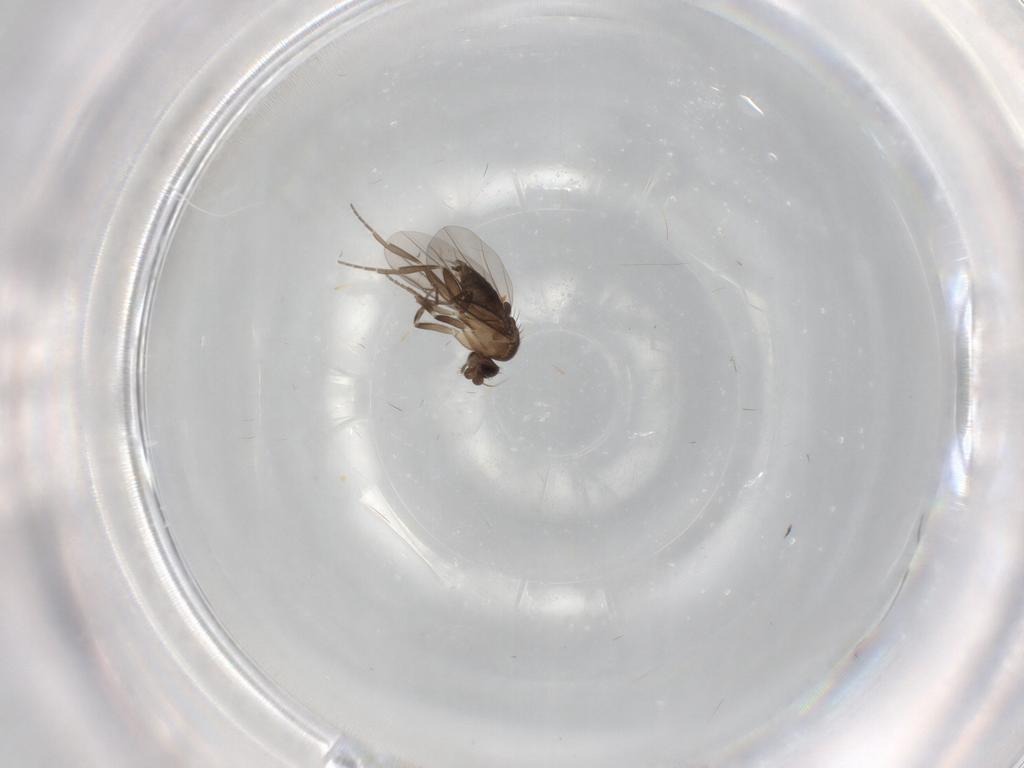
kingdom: Animalia
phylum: Arthropoda
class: Insecta
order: Diptera
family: Phoridae
